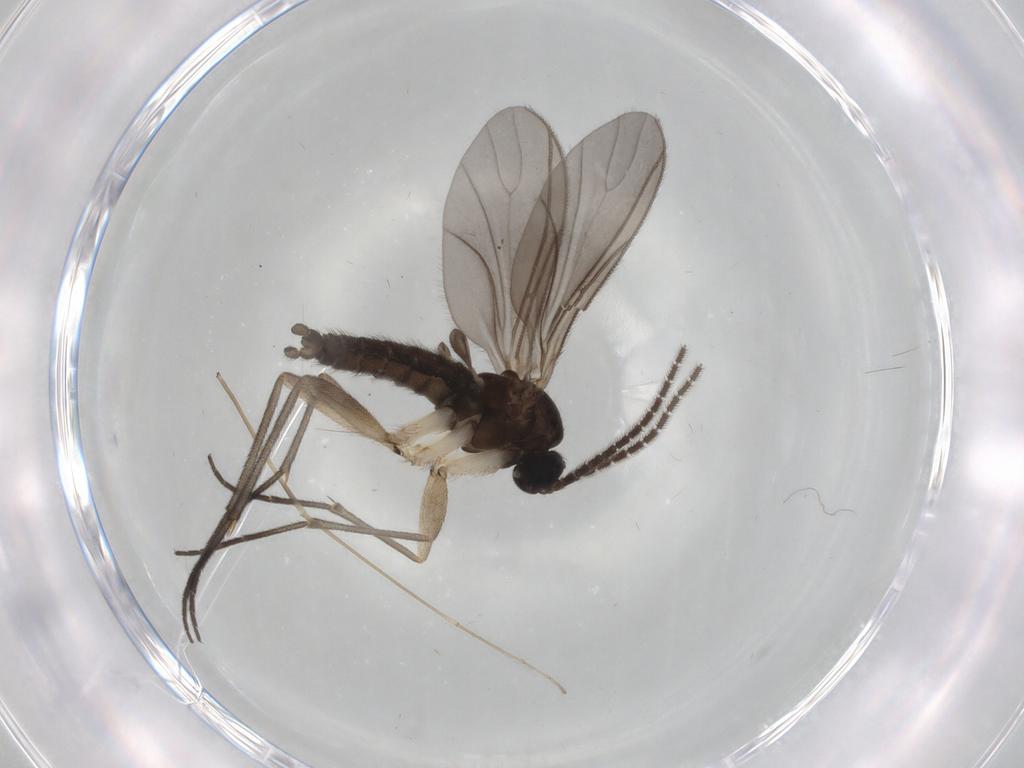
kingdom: Animalia
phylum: Arthropoda
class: Insecta
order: Diptera
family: Sciaridae
